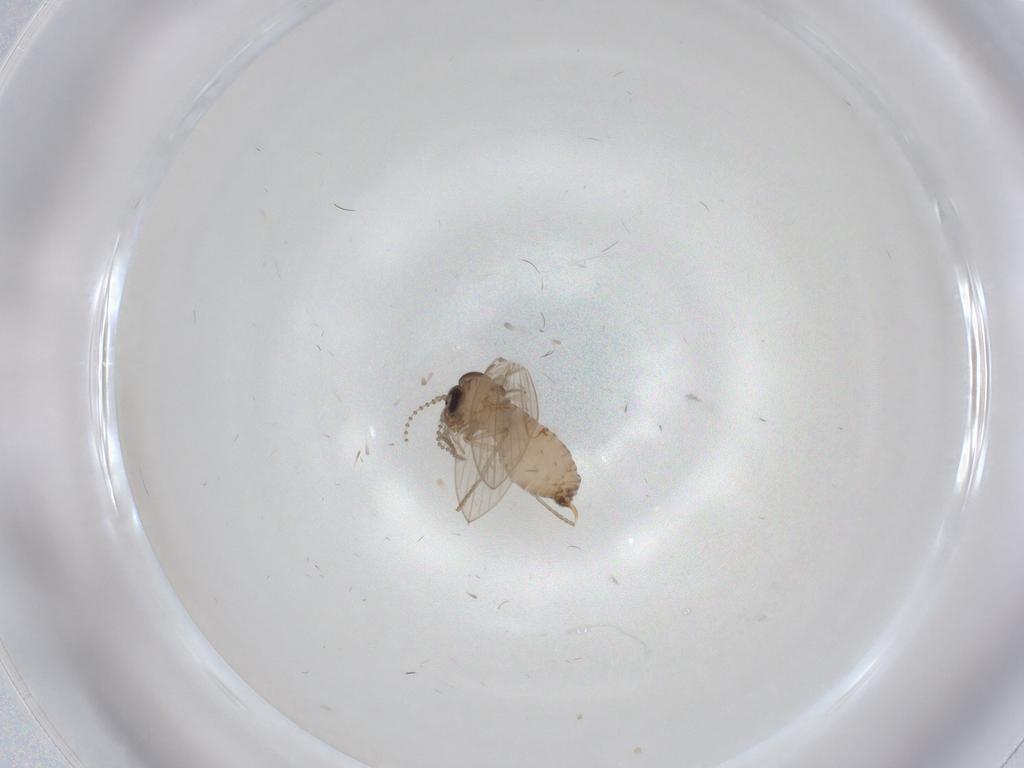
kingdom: Animalia
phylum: Arthropoda
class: Insecta
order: Diptera
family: Psychodidae
